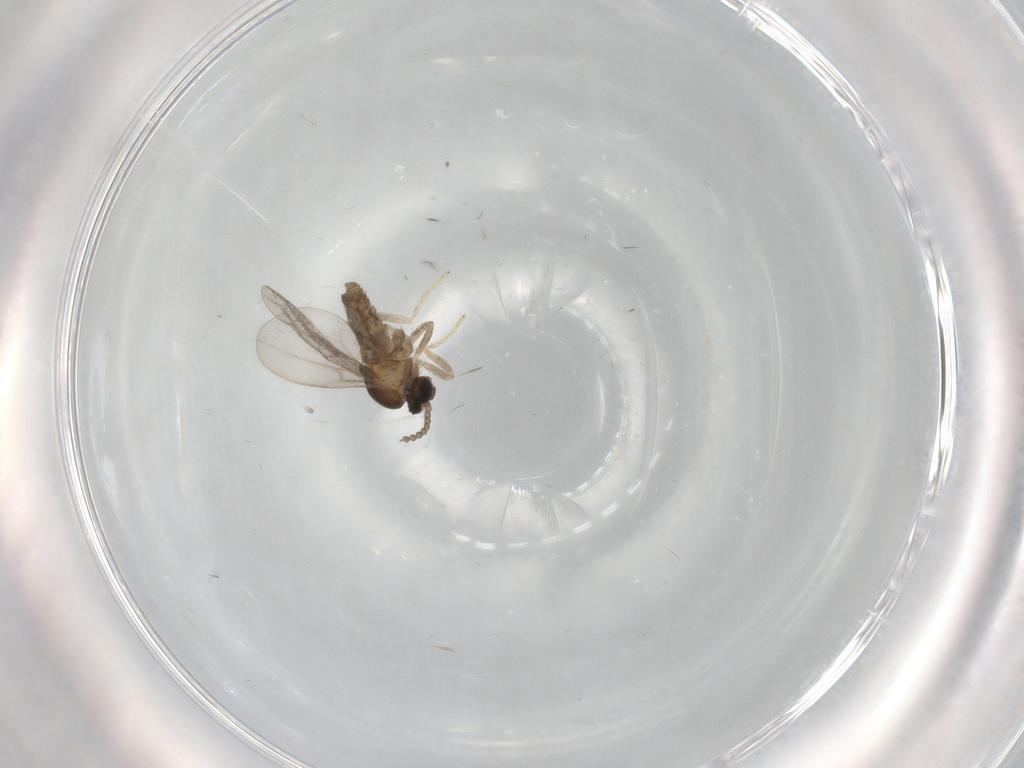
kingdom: Animalia
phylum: Arthropoda
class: Insecta
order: Diptera
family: Cecidomyiidae
